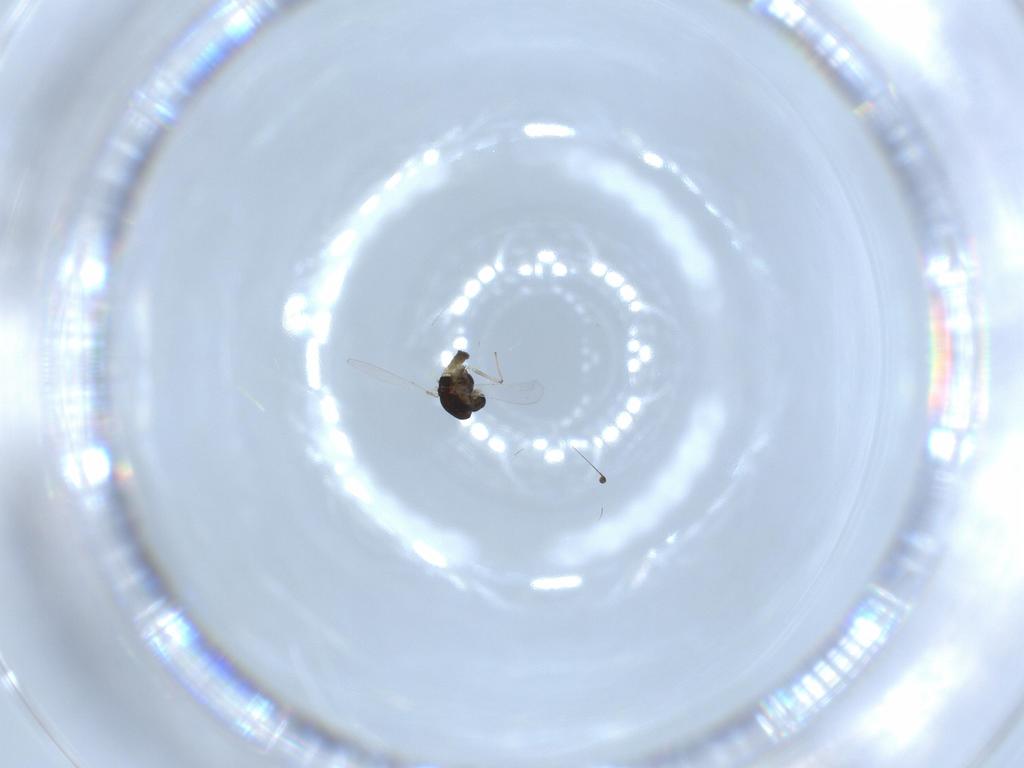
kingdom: Animalia
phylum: Arthropoda
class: Insecta
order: Diptera
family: Chironomidae
